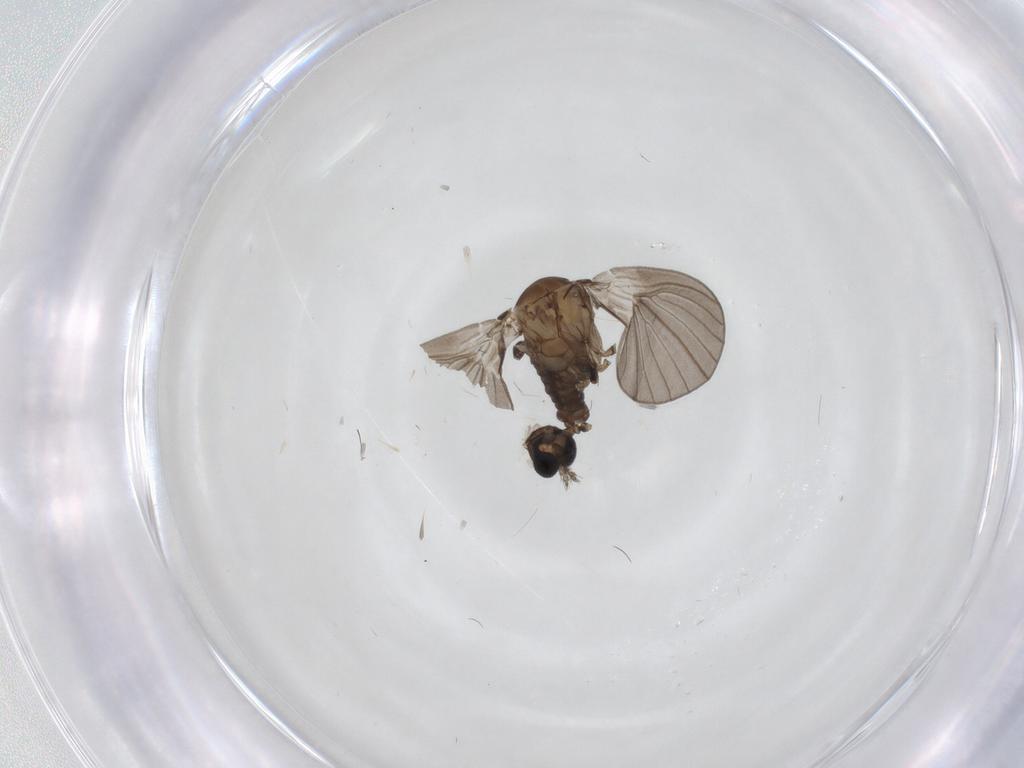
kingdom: Animalia
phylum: Arthropoda
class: Insecta
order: Diptera
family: Psychodidae
